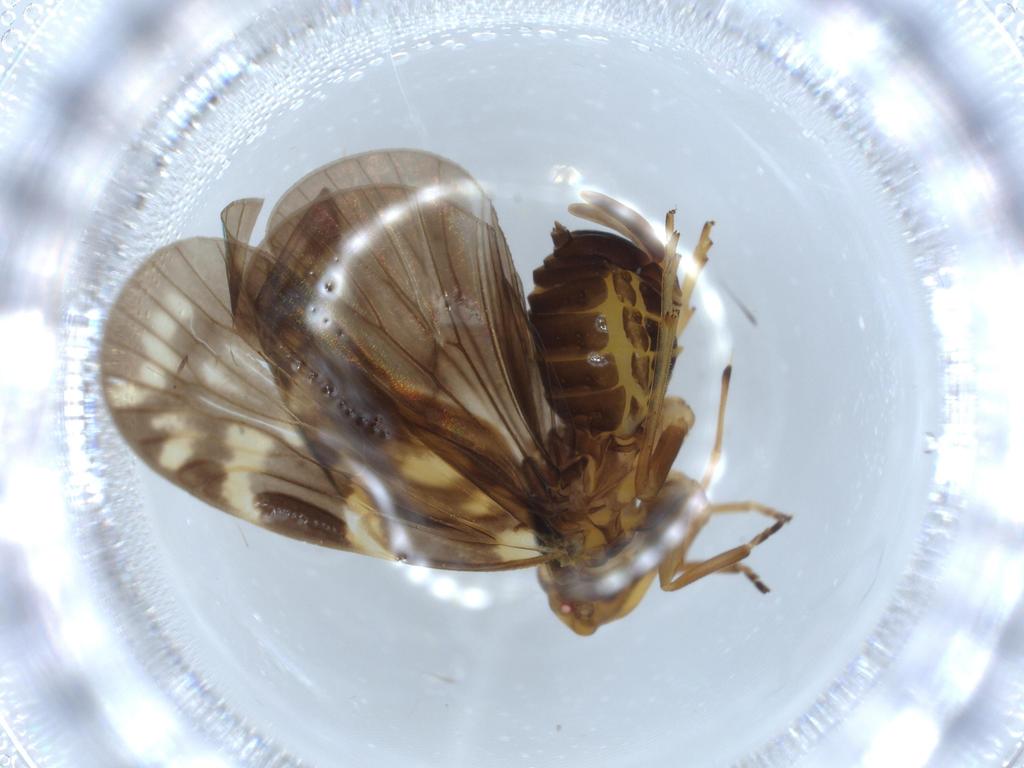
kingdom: Animalia
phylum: Arthropoda
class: Insecta
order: Hemiptera
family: Cixiidae
